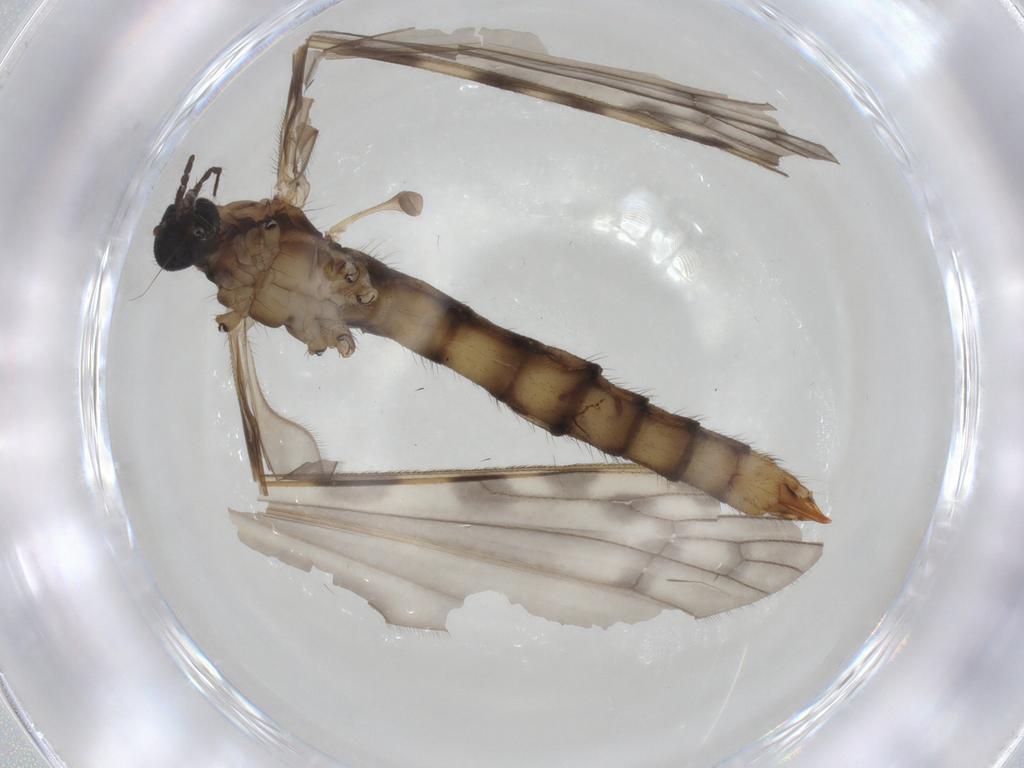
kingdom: Animalia
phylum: Arthropoda
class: Insecta
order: Diptera
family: Limoniidae
